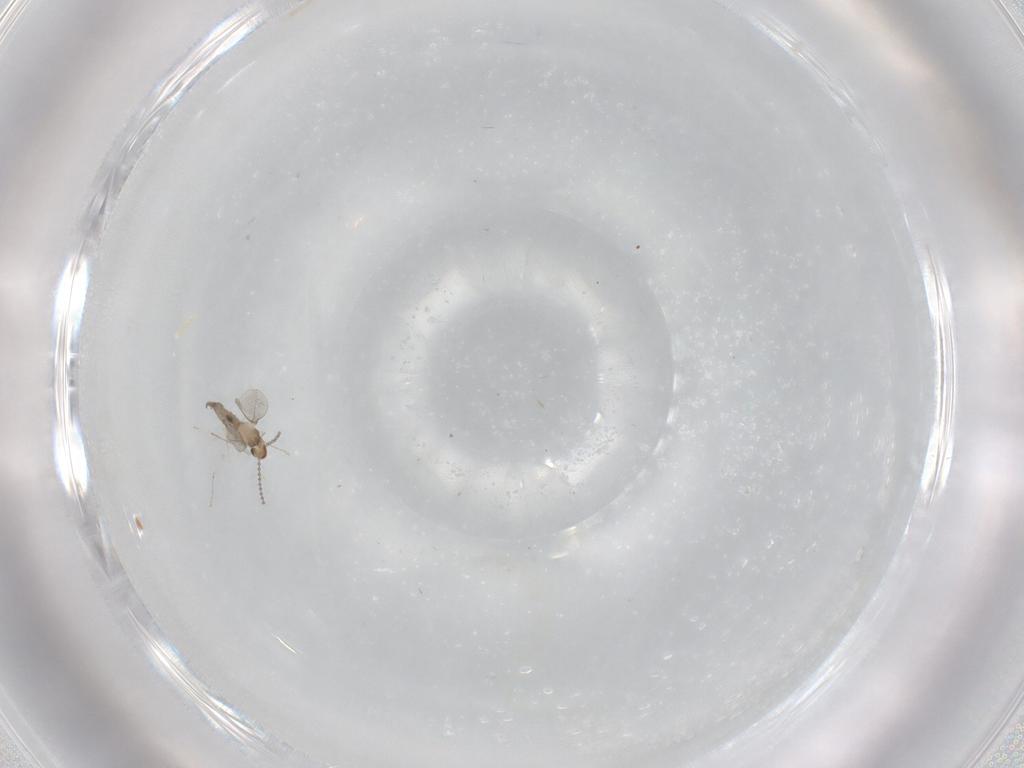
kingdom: Animalia
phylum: Arthropoda
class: Insecta
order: Diptera
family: Cecidomyiidae
